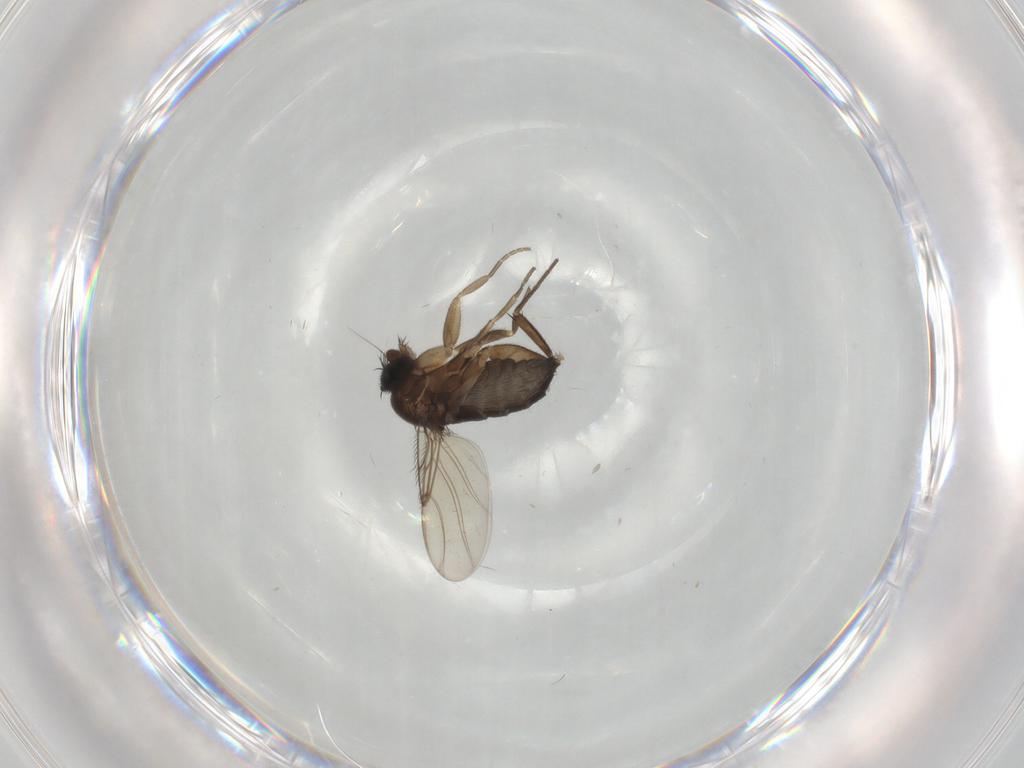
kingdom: Animalia
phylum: Arthropoda
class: Insecta
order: Diptera
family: Phoridae
